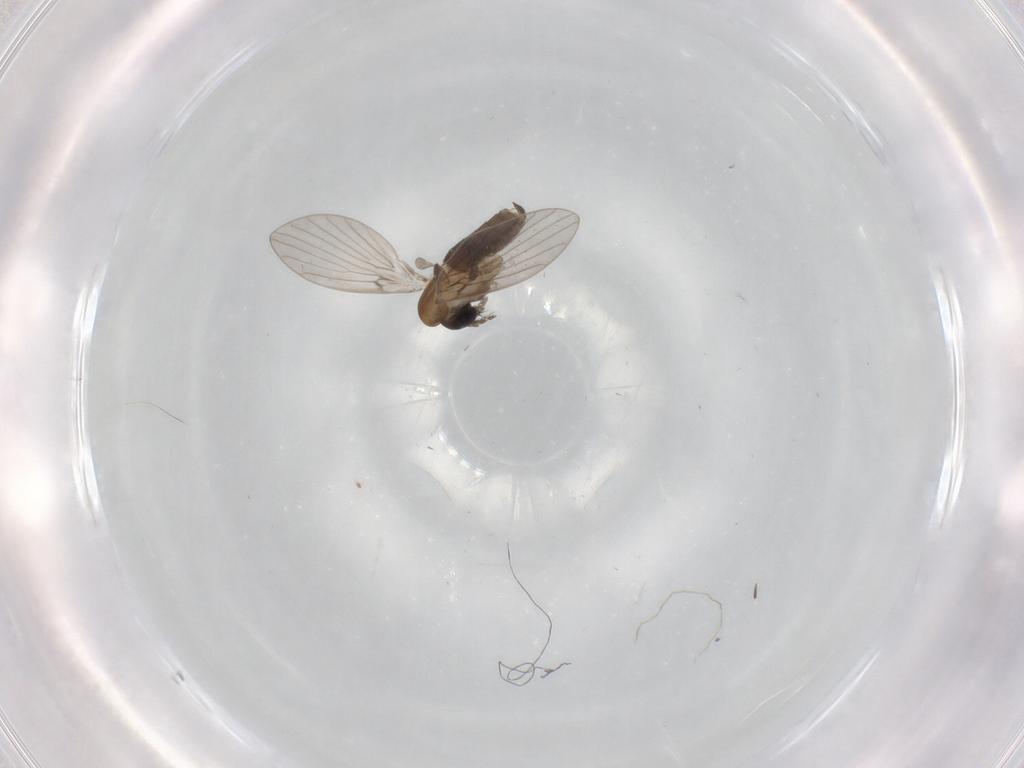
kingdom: Animalia
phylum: Arthropoda
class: Insecta
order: Diptera
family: Psychodidae
